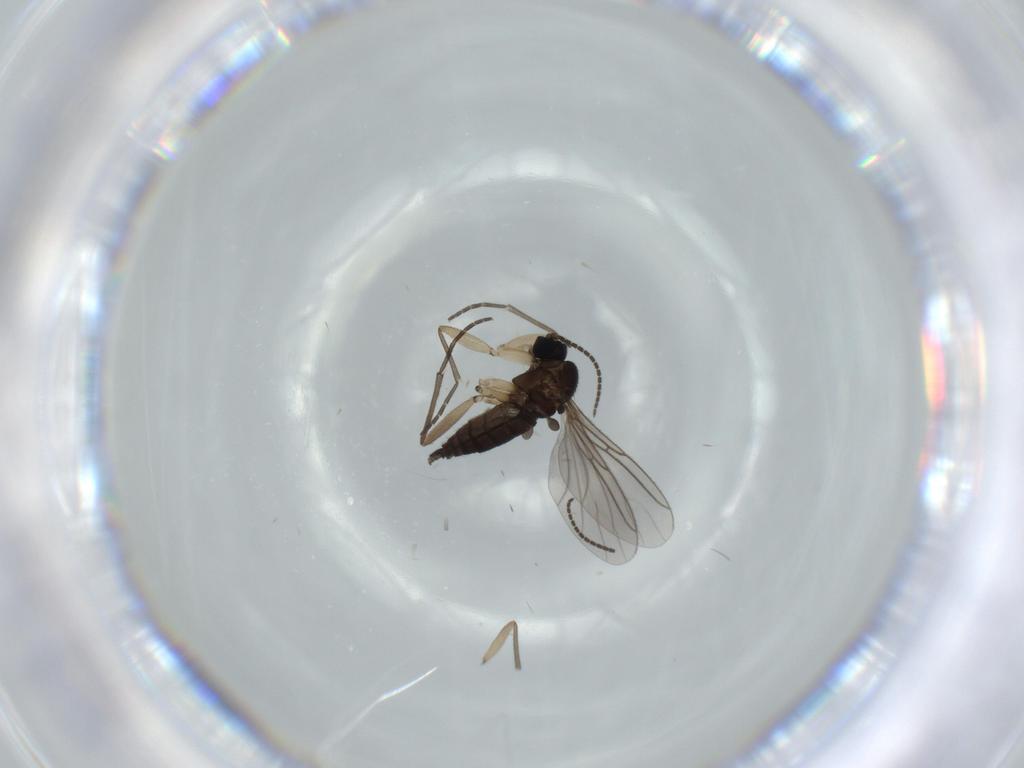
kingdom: Animalia
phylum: Arthropoda
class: Insecta
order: Diptera
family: Sciaridae
